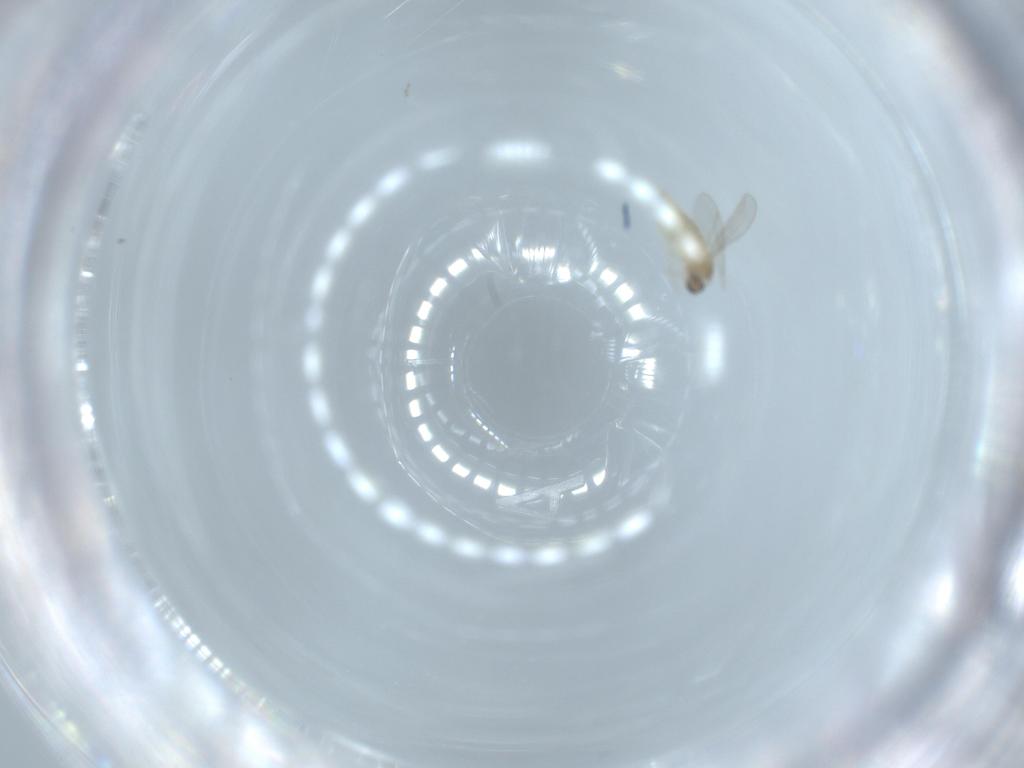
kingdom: Animalia
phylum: Arthropoda
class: Insecta
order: Diptera
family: Cecidomyiidae
